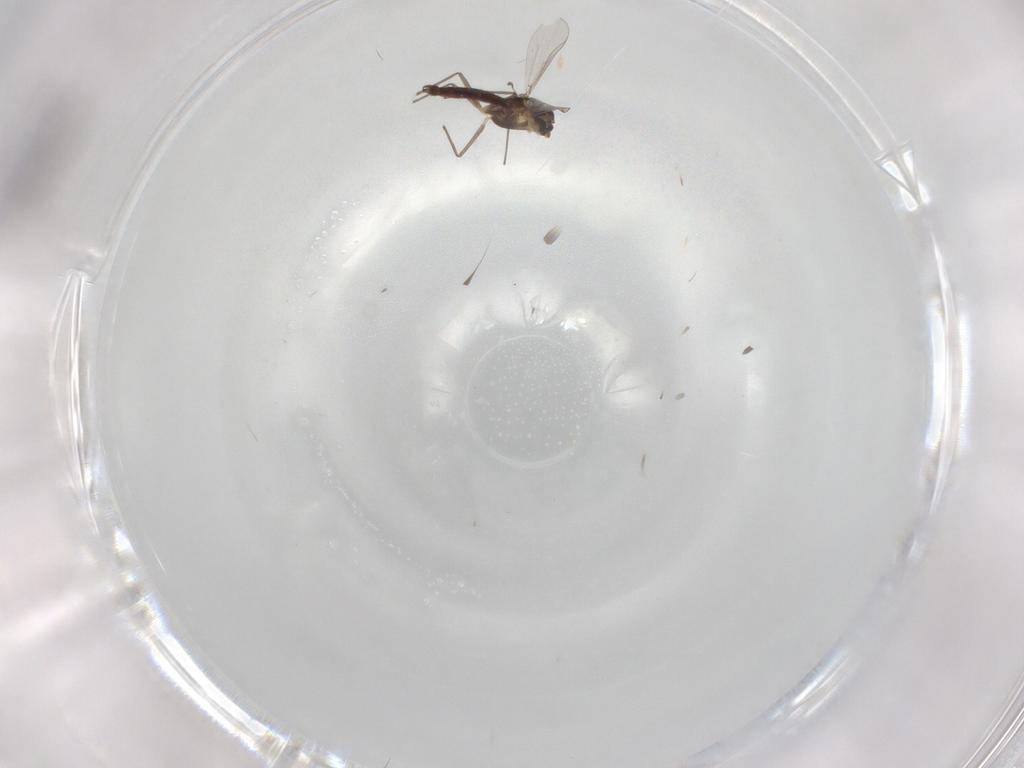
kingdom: Animalia
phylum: Arthropoda
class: Insecta
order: Diptera
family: Chironomidae
